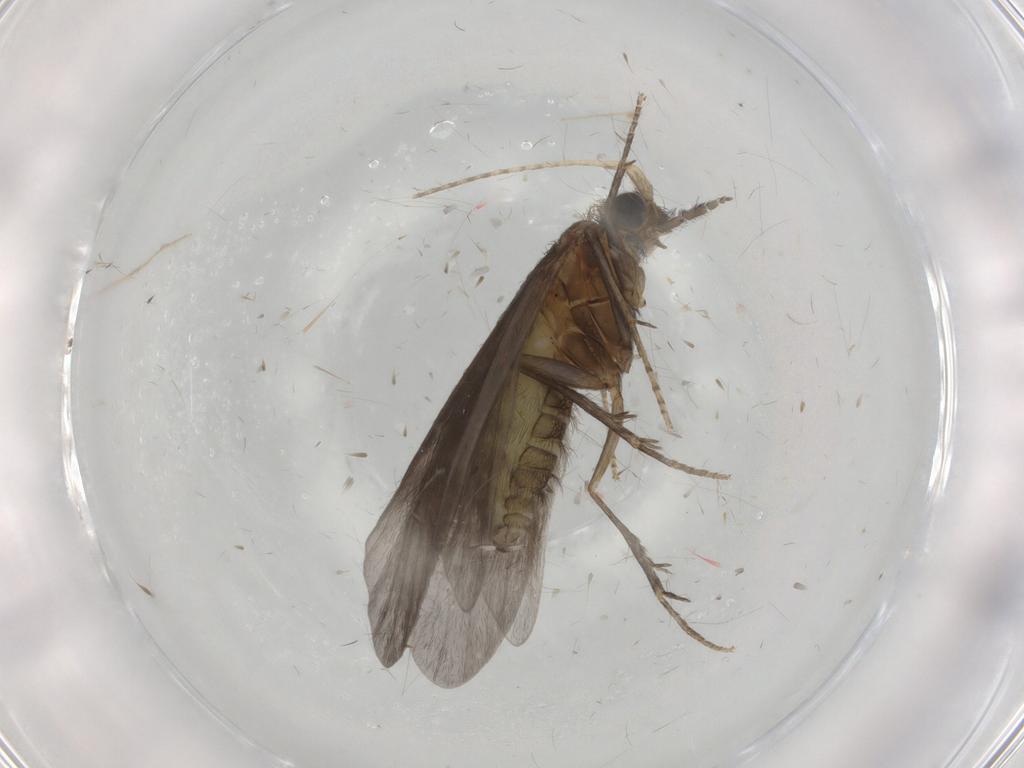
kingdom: Animalia
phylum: Arthropoda
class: Insecta
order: Trichoptera
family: Helicopsychidae
